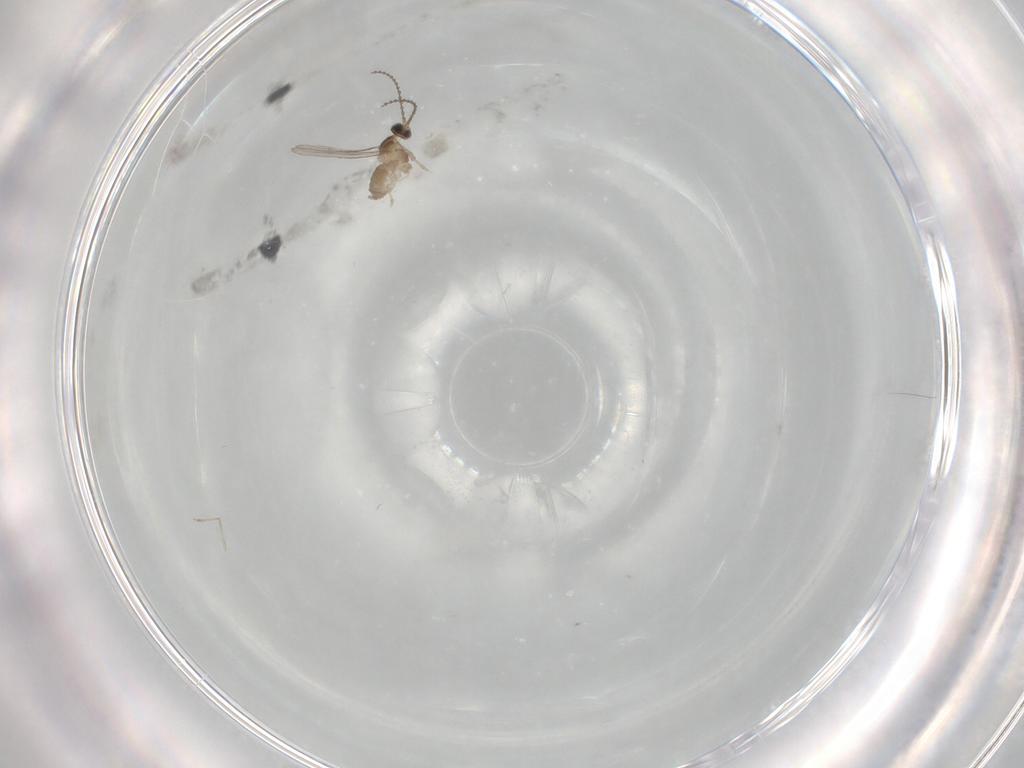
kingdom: Animalia
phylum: Arthropoda
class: Insecta
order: Diptera
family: Cecidomyiidae
